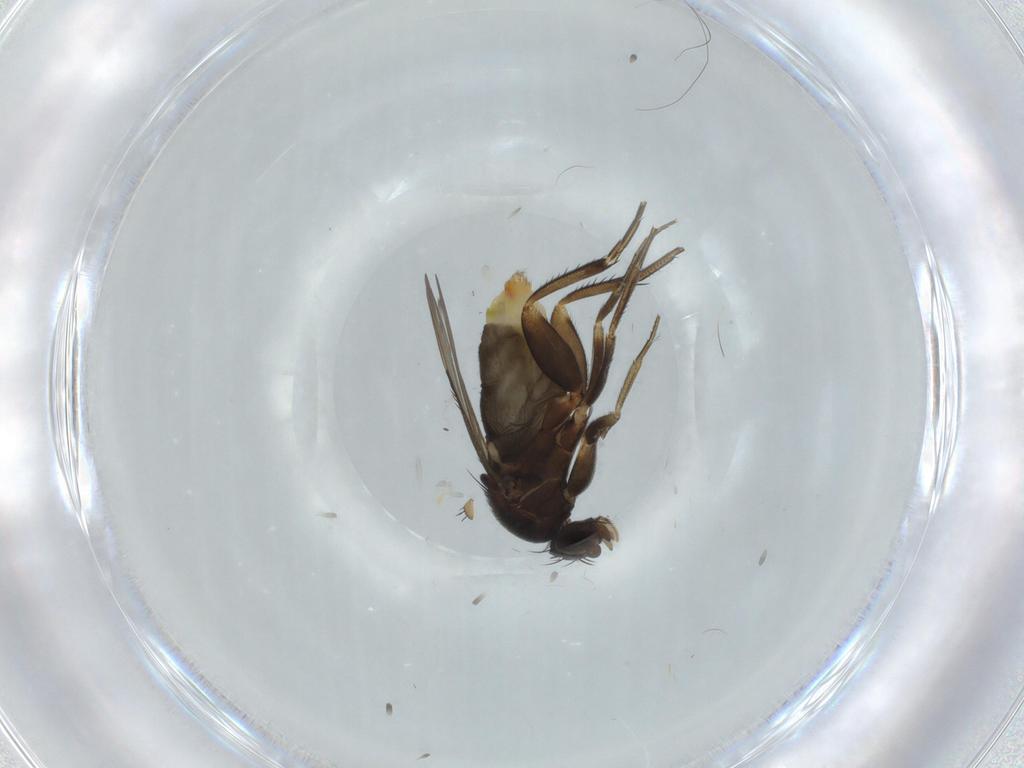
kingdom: Animalia
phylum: Arthropoda
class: Insecta
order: Diptera
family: Phoridae
